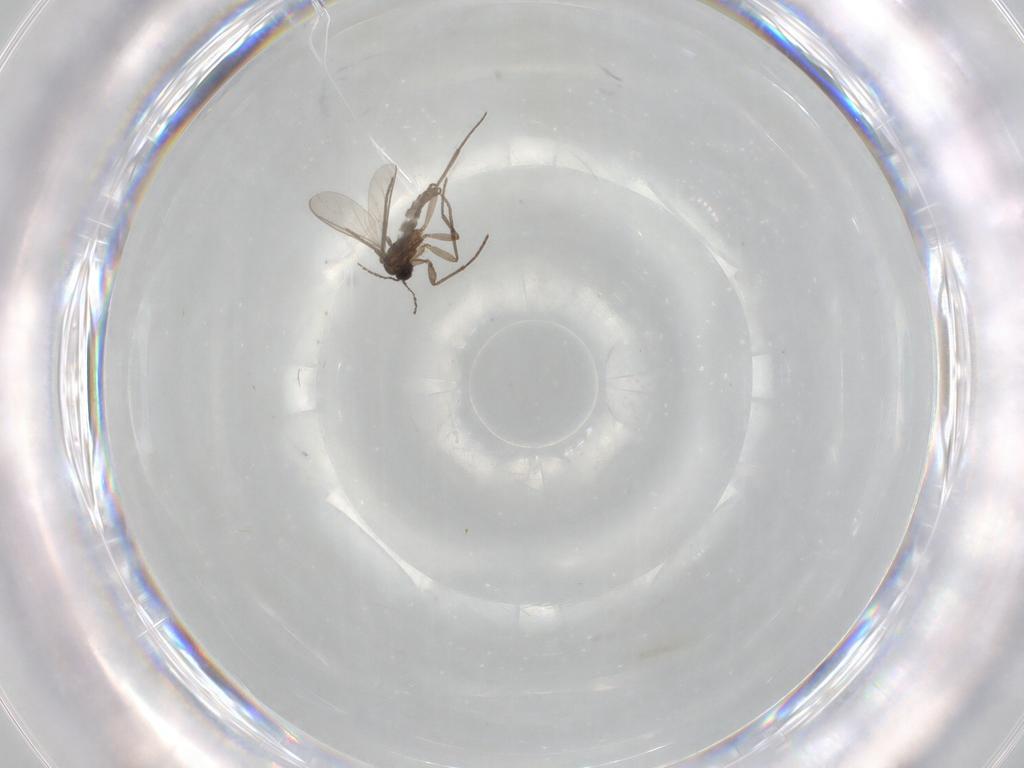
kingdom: Animalia
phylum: Arthropoda
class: Insecta
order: Diptera
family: Sciaridae
